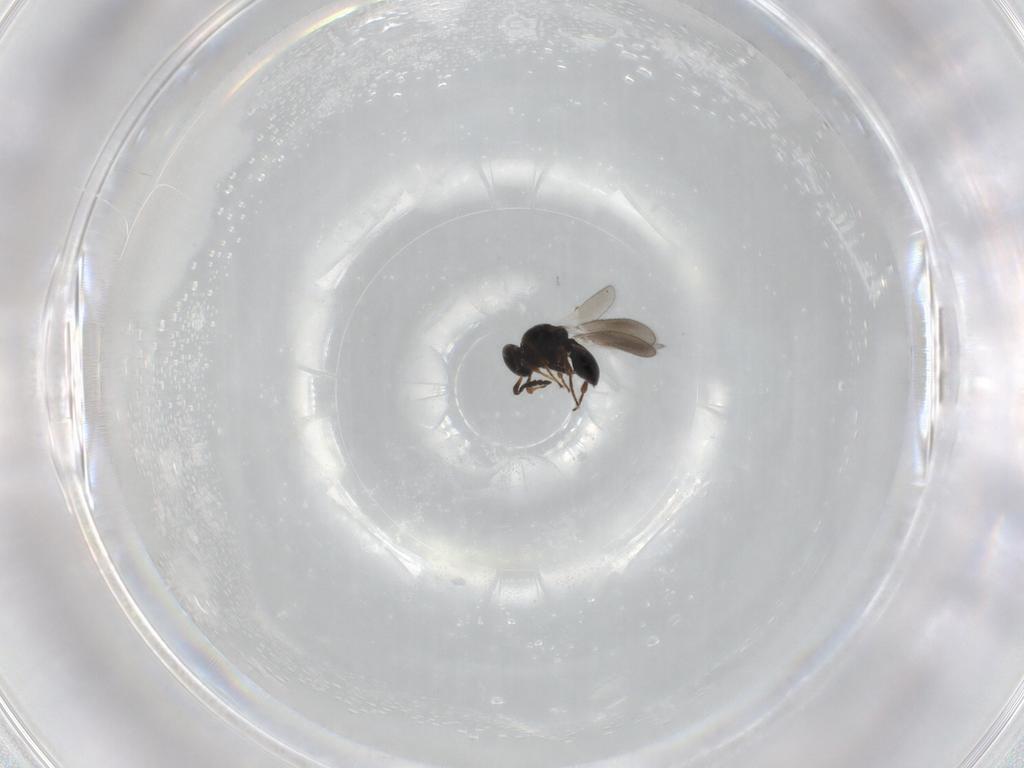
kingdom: Animalia
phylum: Arthropoda
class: Insecta
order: Hymenoptera
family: Platygastridae
